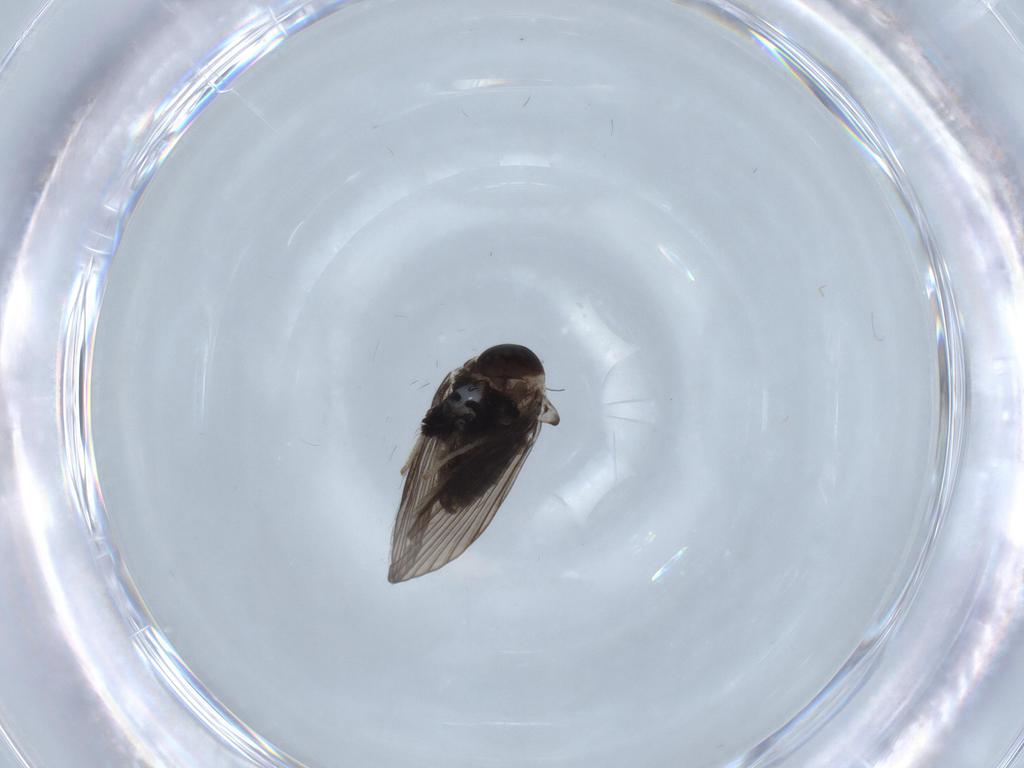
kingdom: Animalia
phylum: Arthropoda
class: Insecta
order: Diptera
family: Psychodidae
